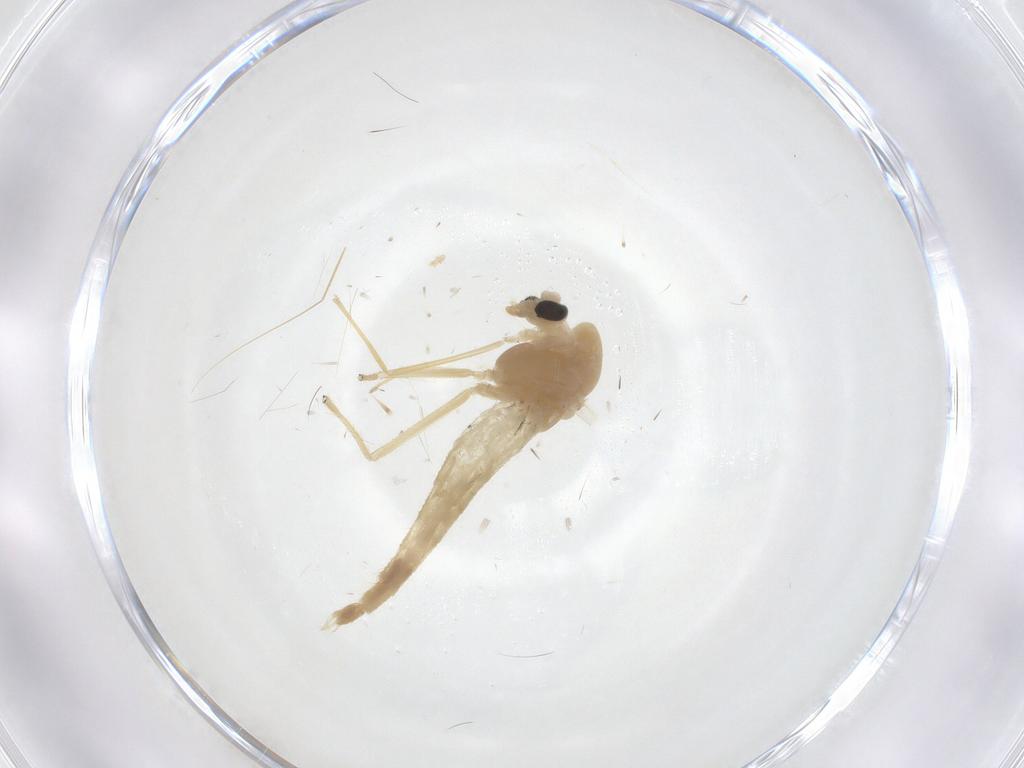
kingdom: Animalia
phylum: Arthropoda
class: Insecta
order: Diptera
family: Chironomidae
